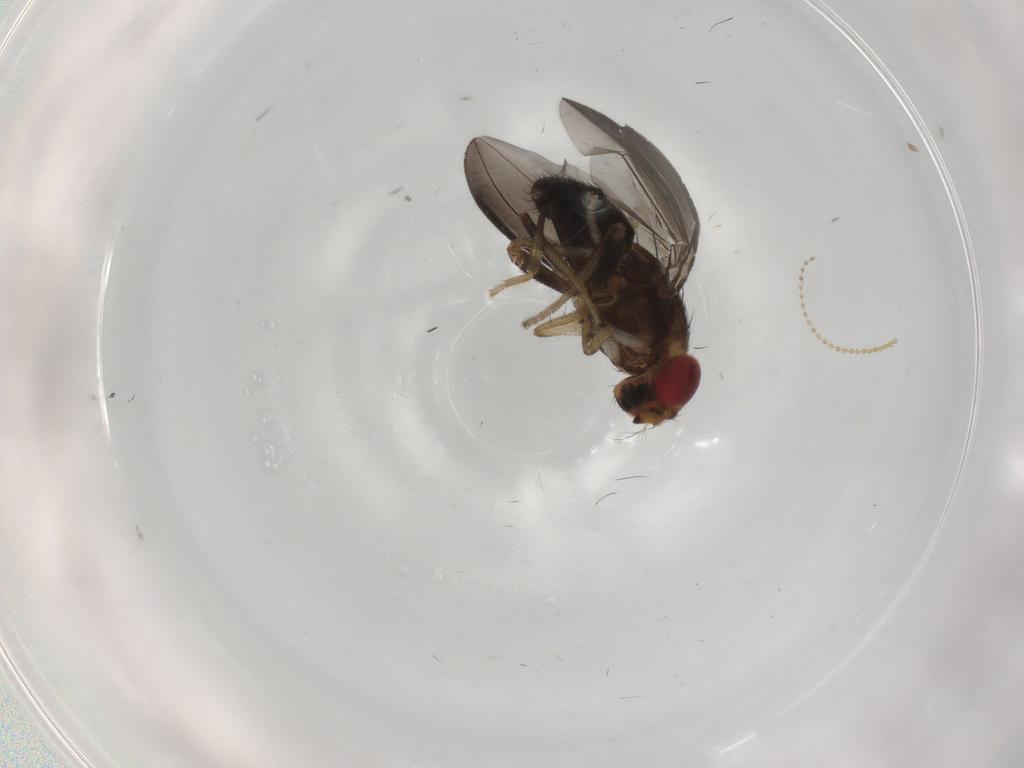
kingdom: Animalia
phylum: Arthropoda
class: Insecta
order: Diptera
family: Drosophilidae
